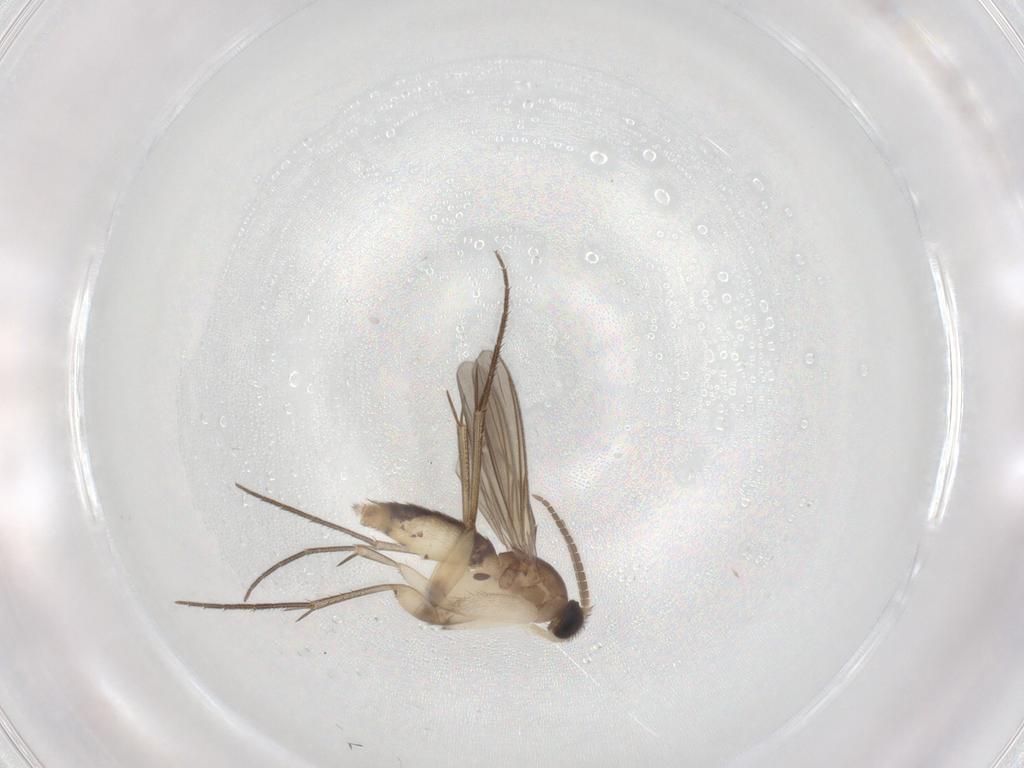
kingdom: Animalia
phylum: Arthropoda
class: Insecta
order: Diptera
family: Mycetophilidae
